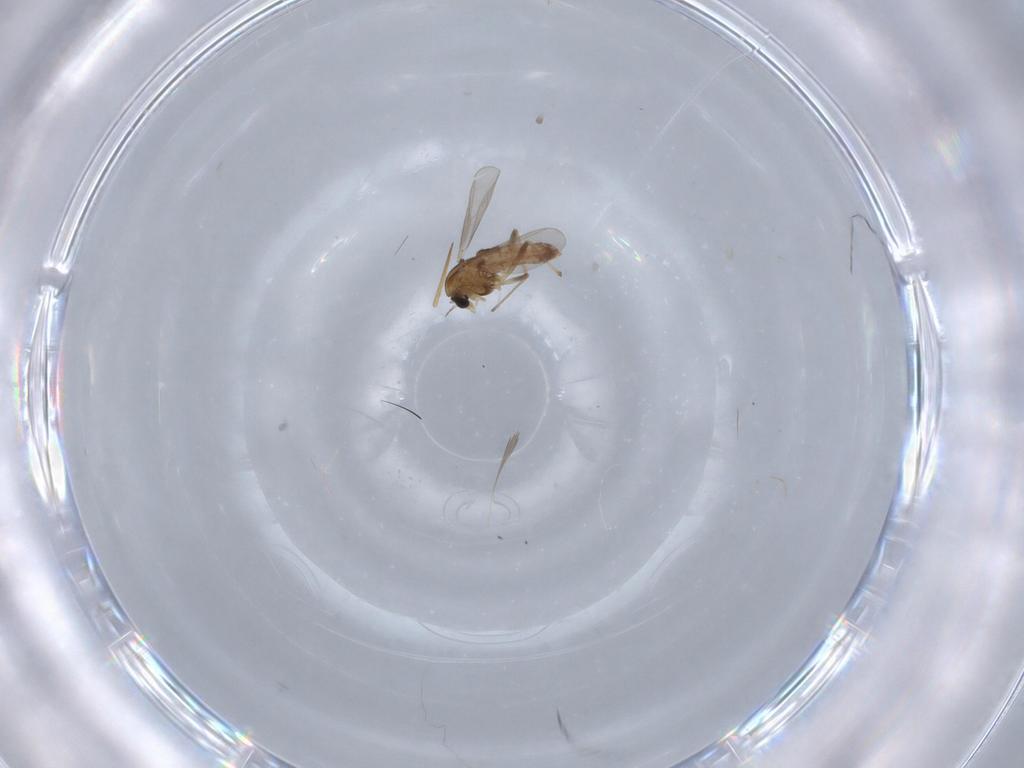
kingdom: Animalia
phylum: Arthropoda
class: Insecta
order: Diptera
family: Chironomidae
